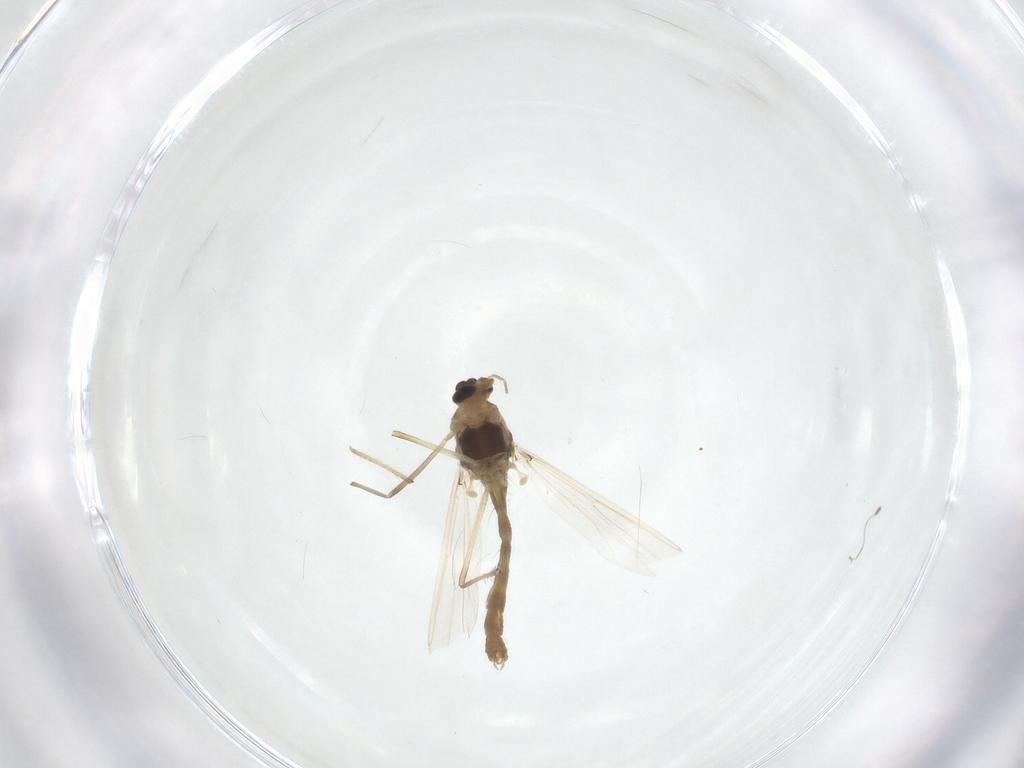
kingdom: Animalia
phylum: Arthropoda
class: Insecta
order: Diptera
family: Chironomidae
